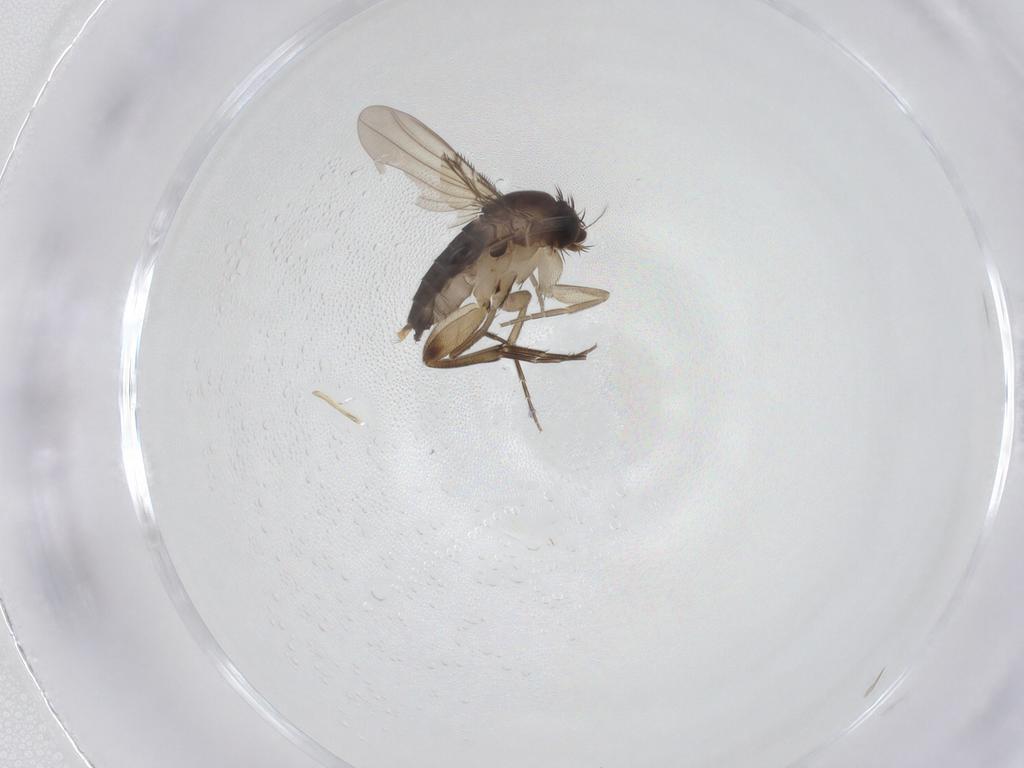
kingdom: Animalia
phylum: Arthropoda
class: Insecta
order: Diptera
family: Phoridae
